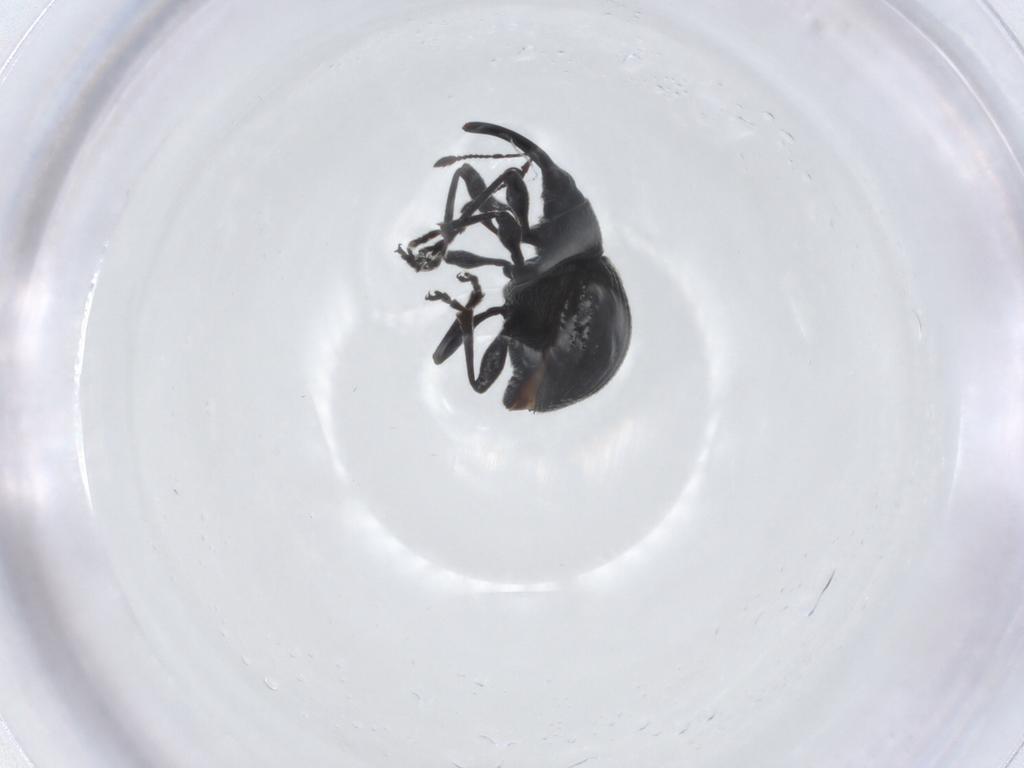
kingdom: Animalia
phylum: Arthropoda
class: Insecta
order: Coleoptera
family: Brentidae
